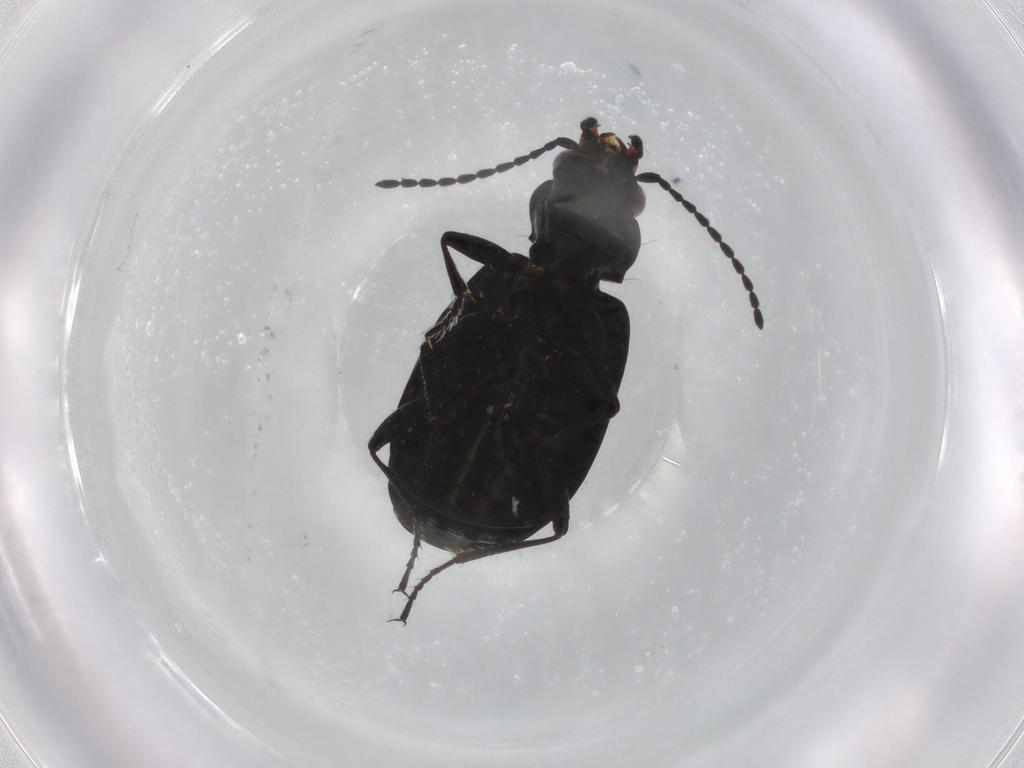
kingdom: Animalia
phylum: Arthropoda
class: Insecta
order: Coleoptera
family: Carabidae
